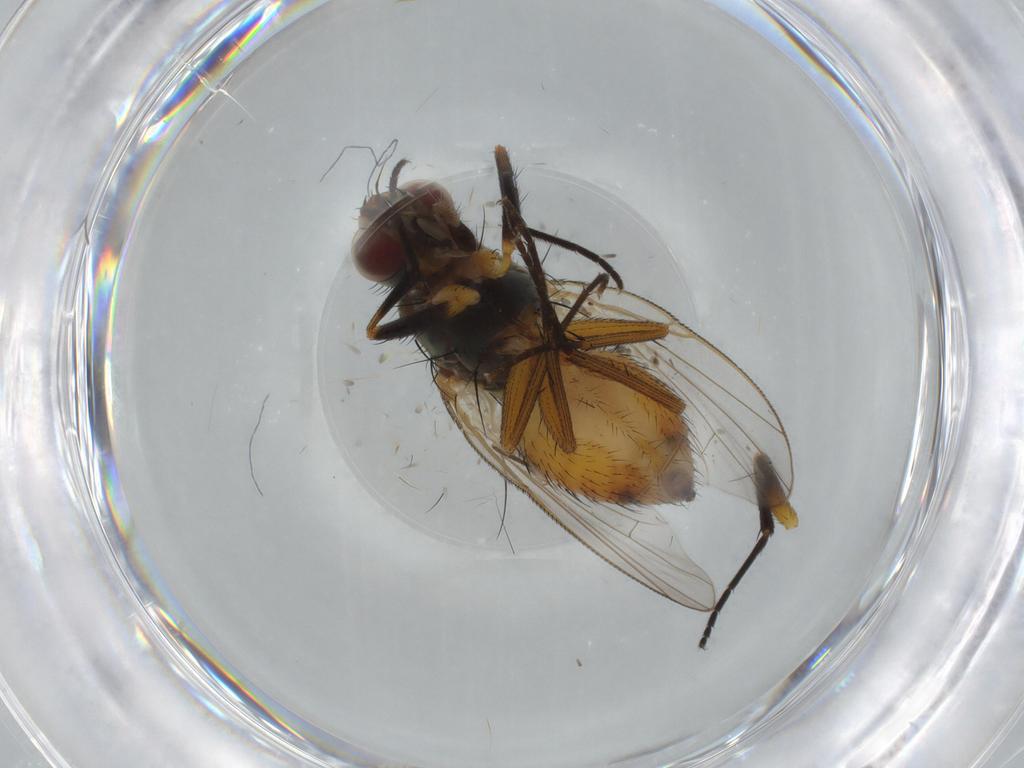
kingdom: Animalia
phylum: Arthropoda
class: Insecta
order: Diptera
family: Muscidae
